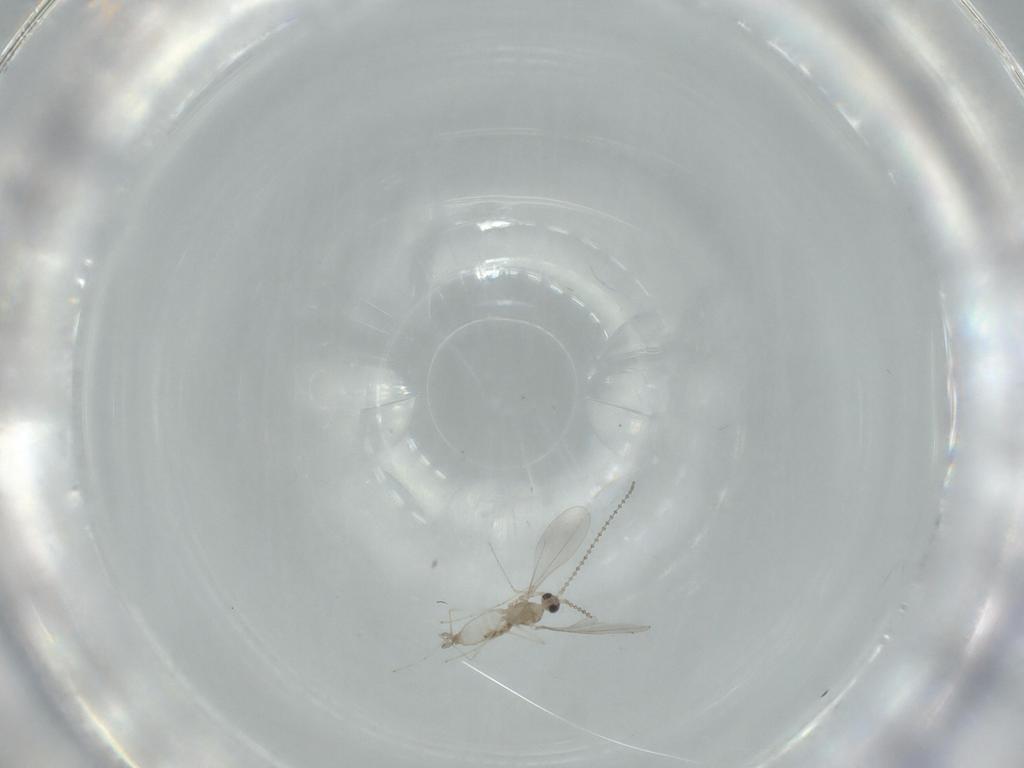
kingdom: Animalia
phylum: Arthropoda
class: Insecta
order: Diptera
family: Cecidomyiidae
